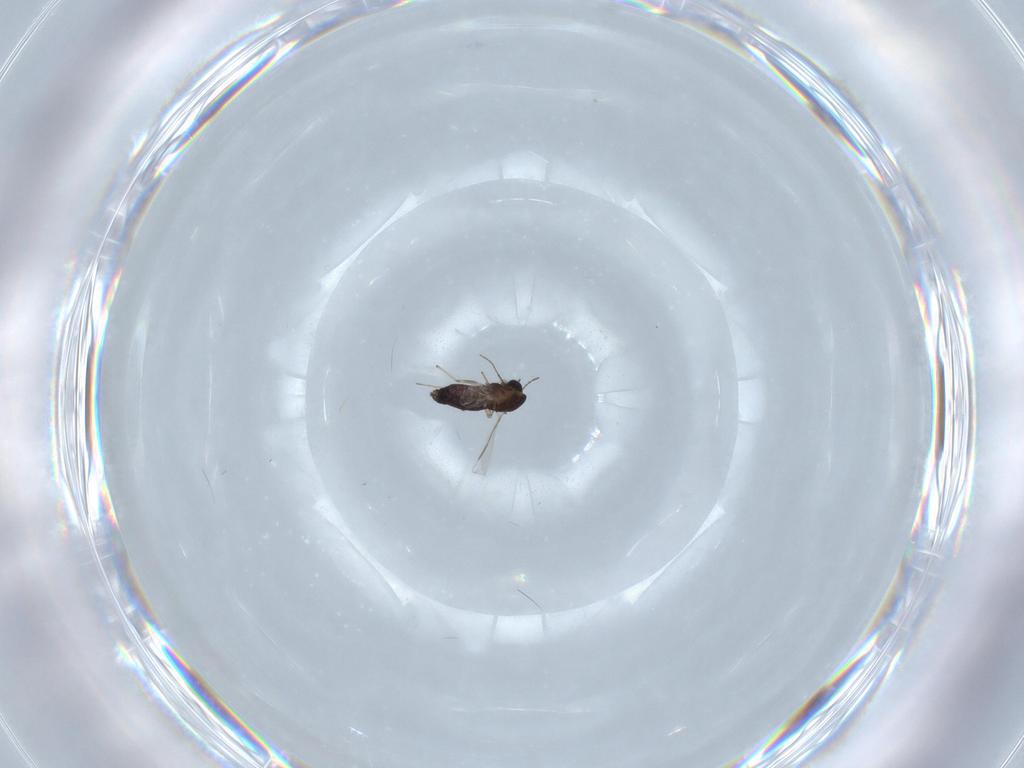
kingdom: Animalia
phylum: Arthropoda
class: Insecta
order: Diptera
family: Chironomidae
